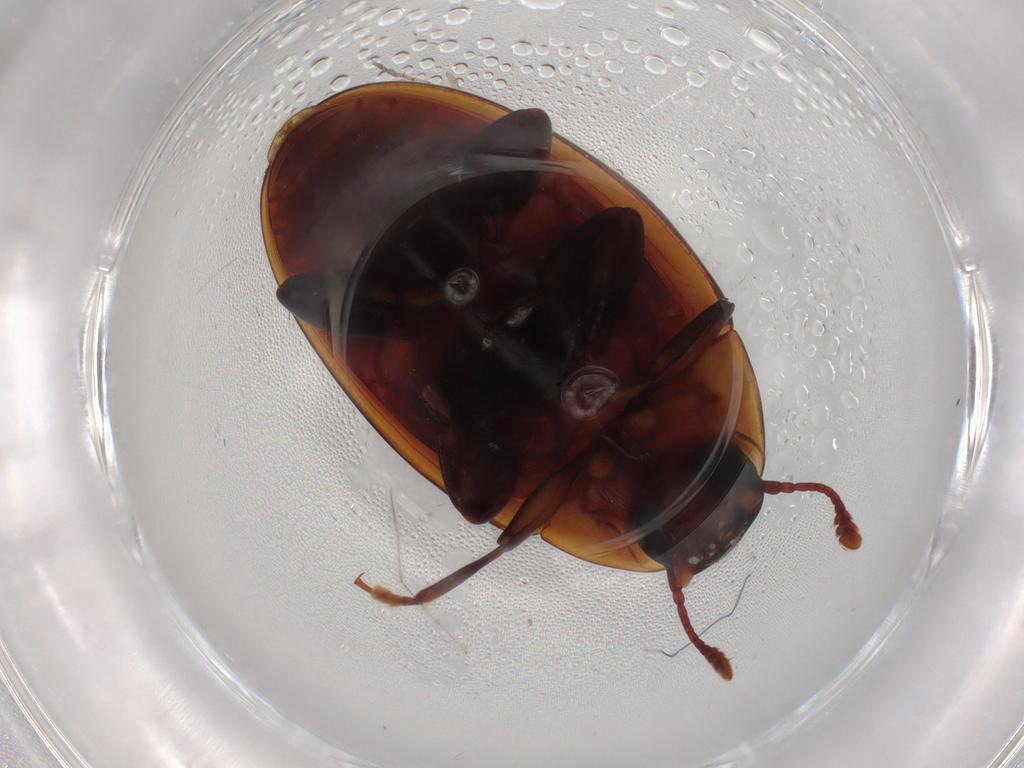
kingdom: Animalia
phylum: Arthropoda
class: Insecta
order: Coleoptera
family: Zopheridae
